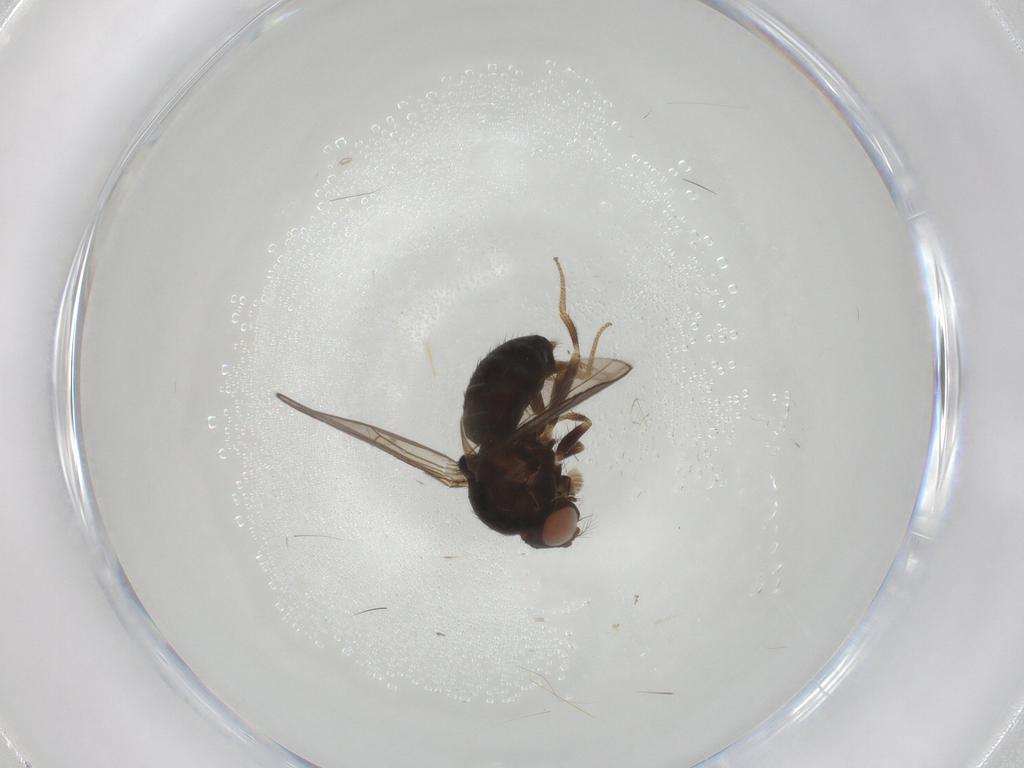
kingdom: Animalia
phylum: Arthropoda
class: Insecta
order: Diptera
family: Drosophilidae
